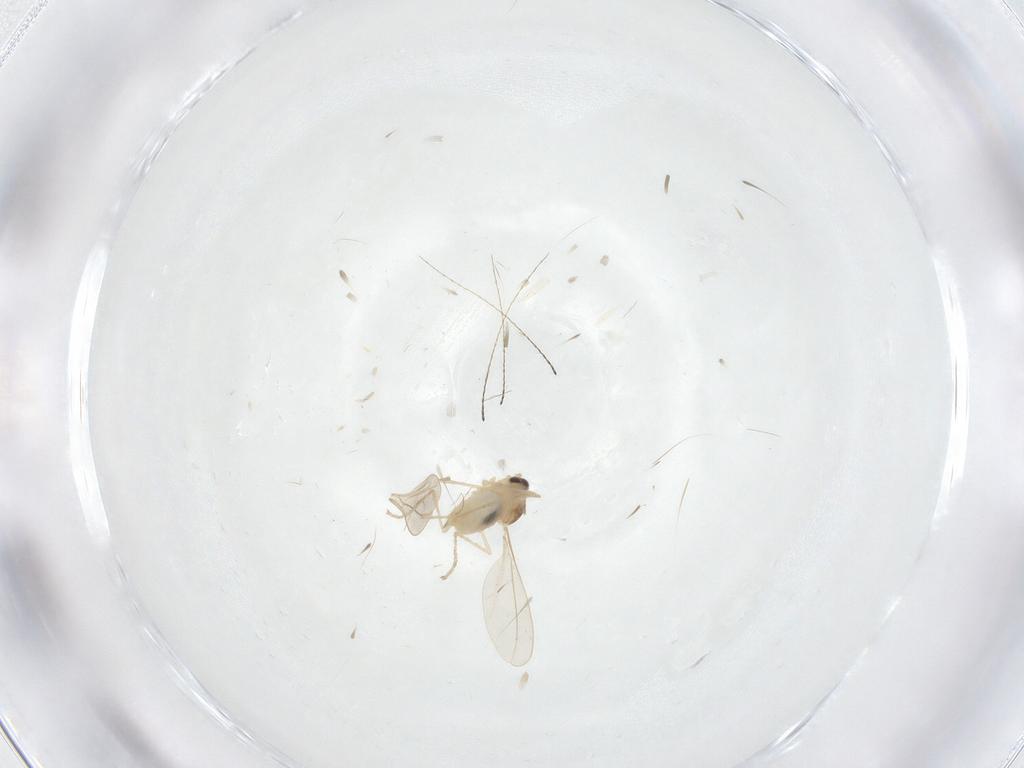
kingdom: Animalia
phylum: Arthropoda
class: Insecta
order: Diptera
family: Cecidomyiidae
